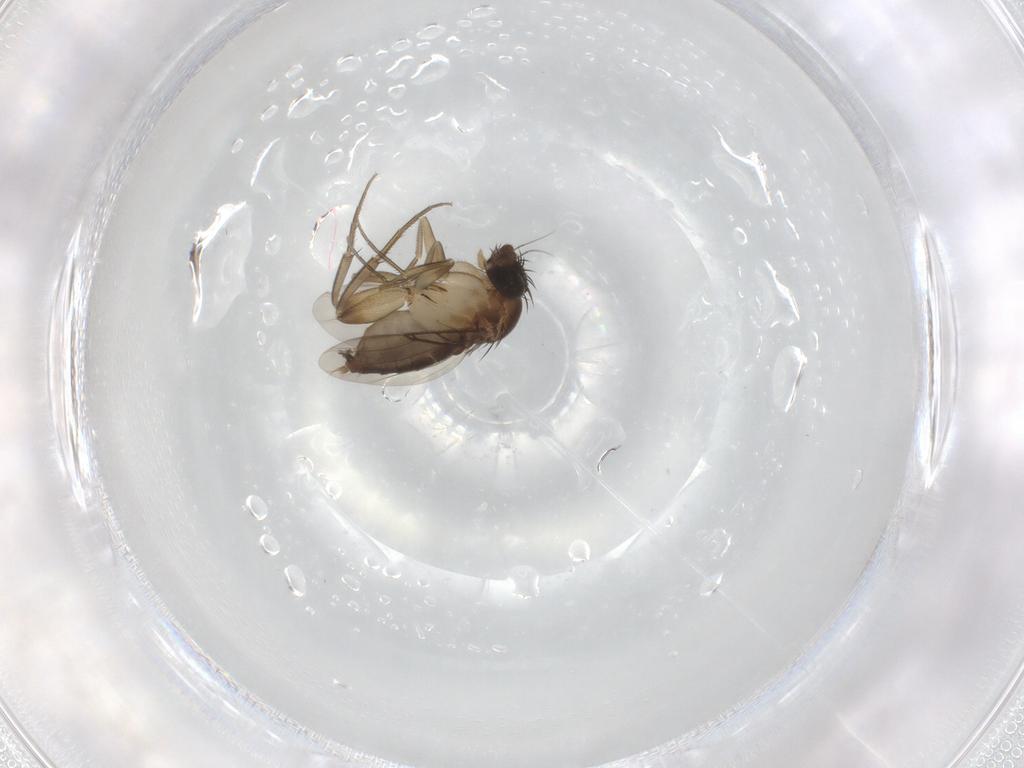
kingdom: Animalia
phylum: Arthropoda
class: Insecta
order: Diptera
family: Phoridae
